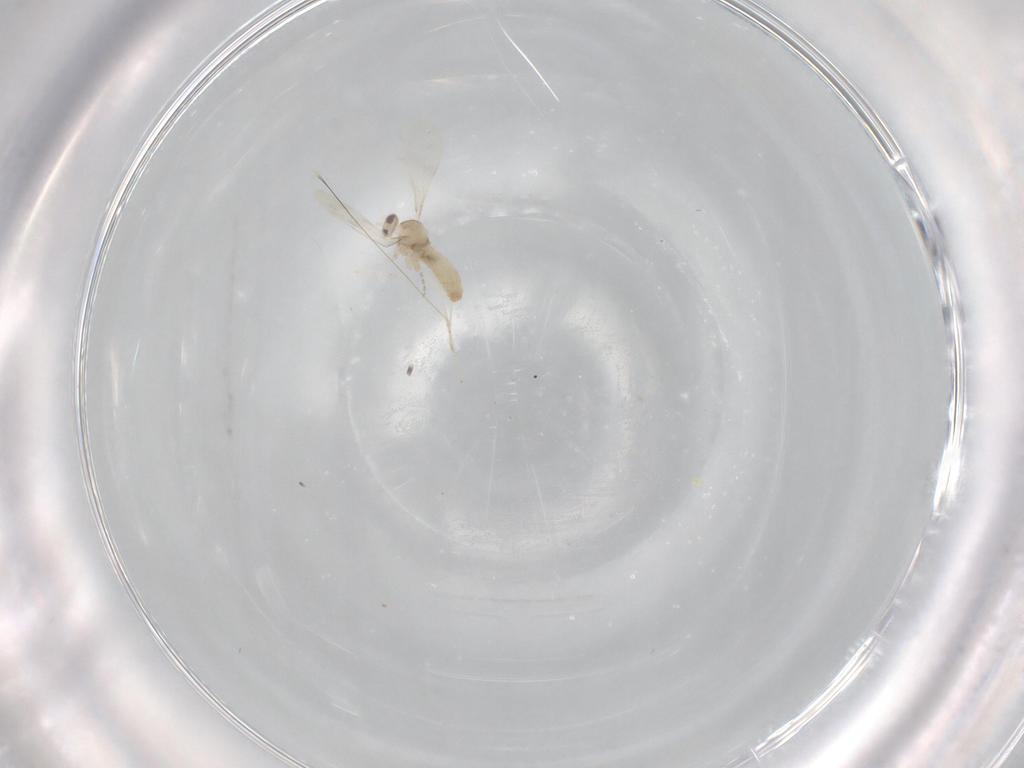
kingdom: Animalia
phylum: Arthropoda
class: Insecta
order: Diptera
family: Cecidomyiidae
